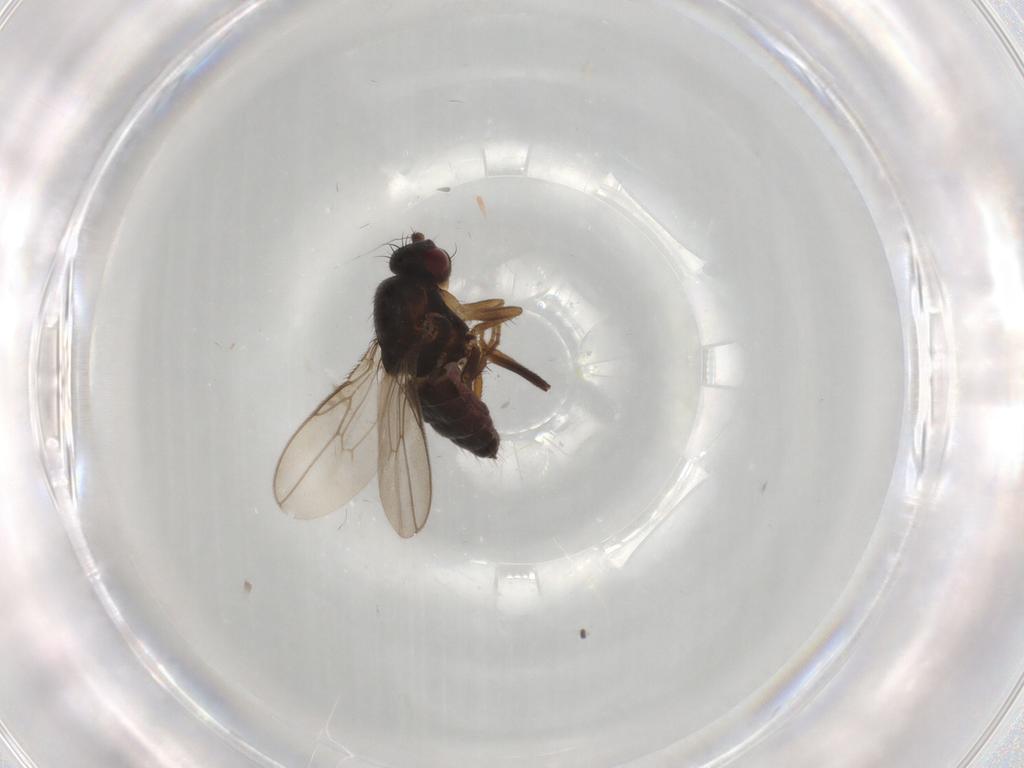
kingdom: Animalia
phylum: Arthropoda
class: Insecta
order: Diptera
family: Sphaeroceridae
